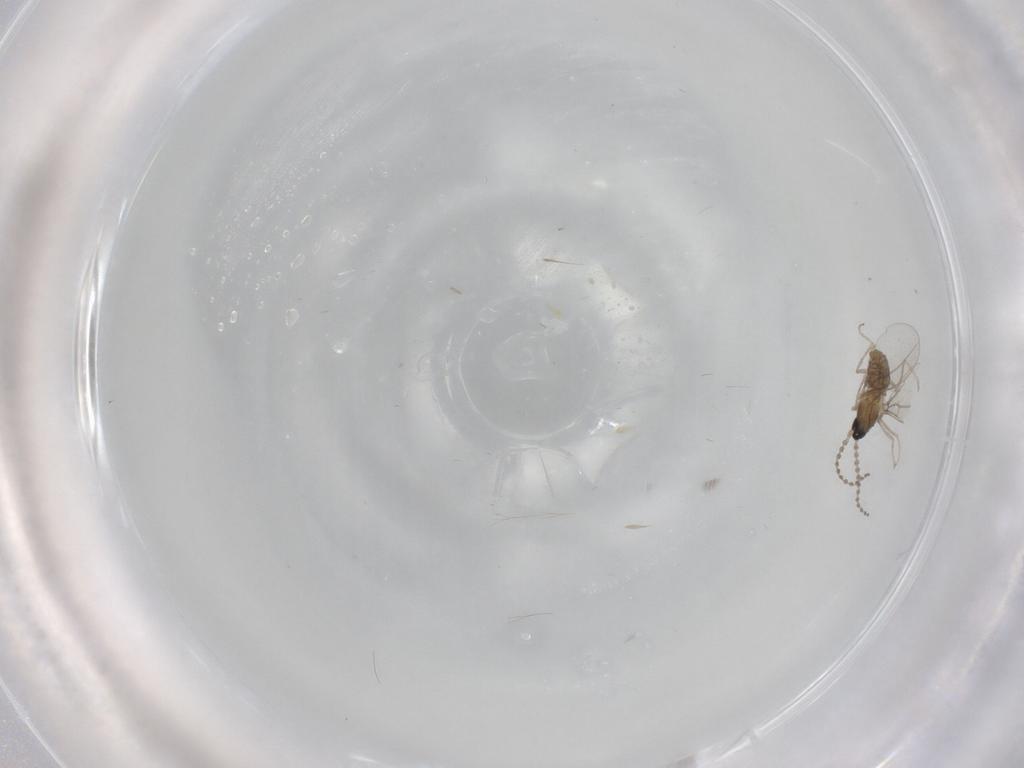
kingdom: Animalia
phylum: Arthropoda
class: Insecta
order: Diptera
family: Cecidomyiidae
